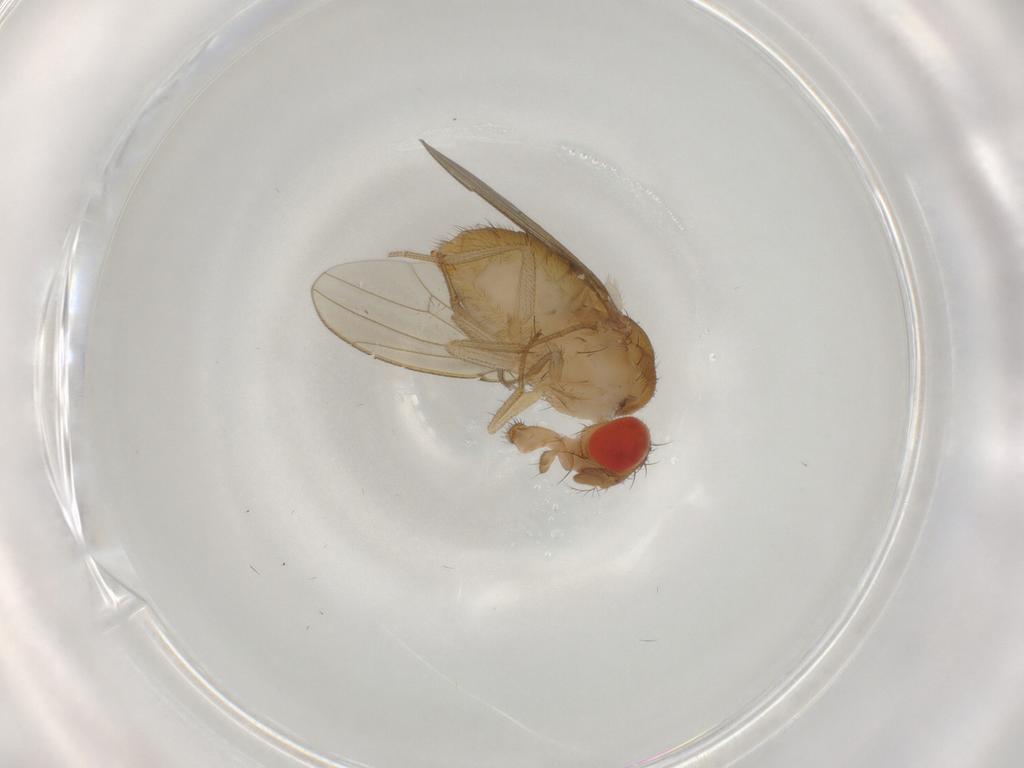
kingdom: Animalia
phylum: Arthropoda
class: Insecta
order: Diptera
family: Drosophilidae
